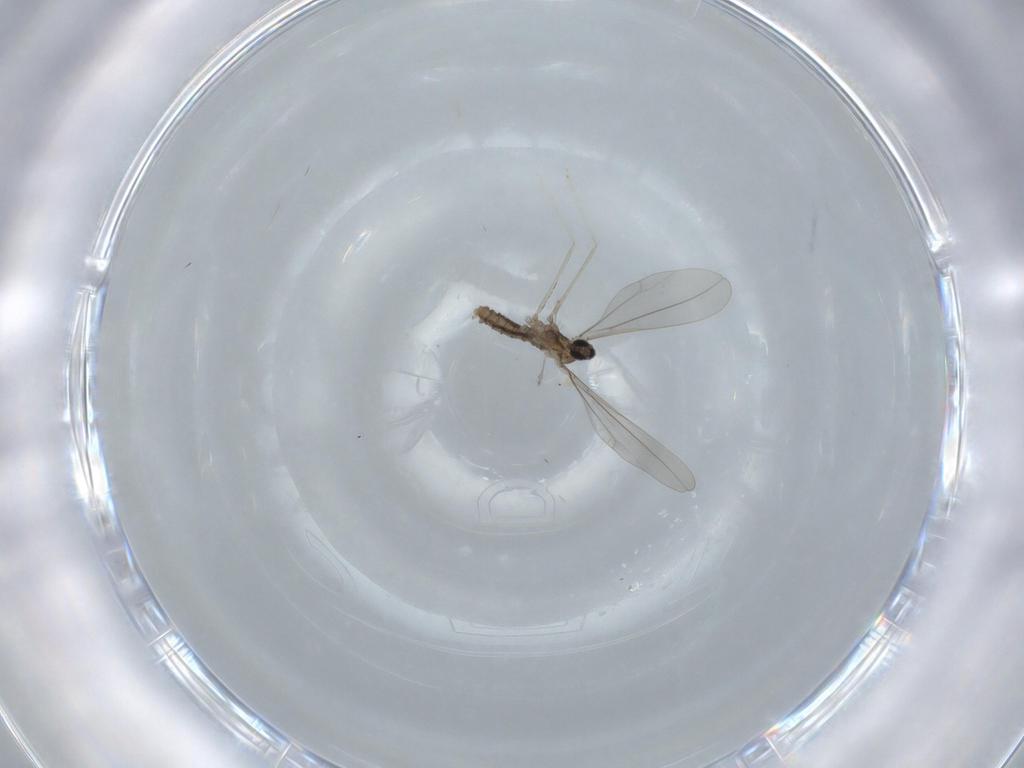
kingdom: Animalia
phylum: Arthropoda
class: Insecta
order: Diptera
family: Cecidomyiidae
